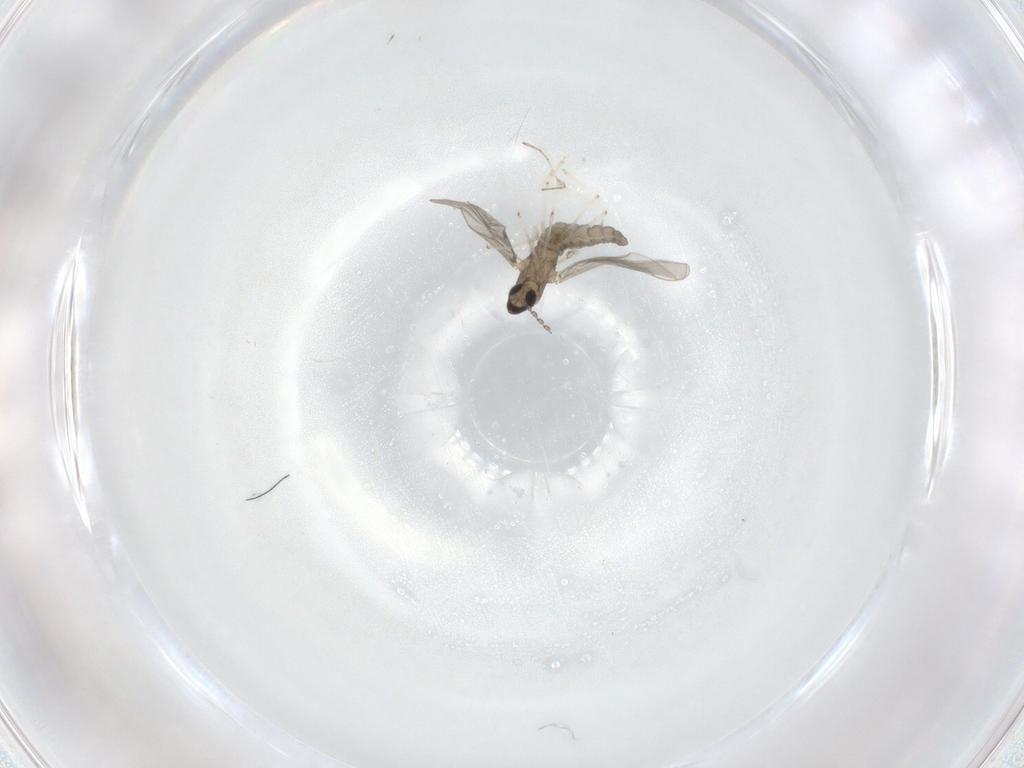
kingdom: Animalia
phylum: Arthropoda
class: Insecta
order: Diptera
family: Cecidomyiidae
